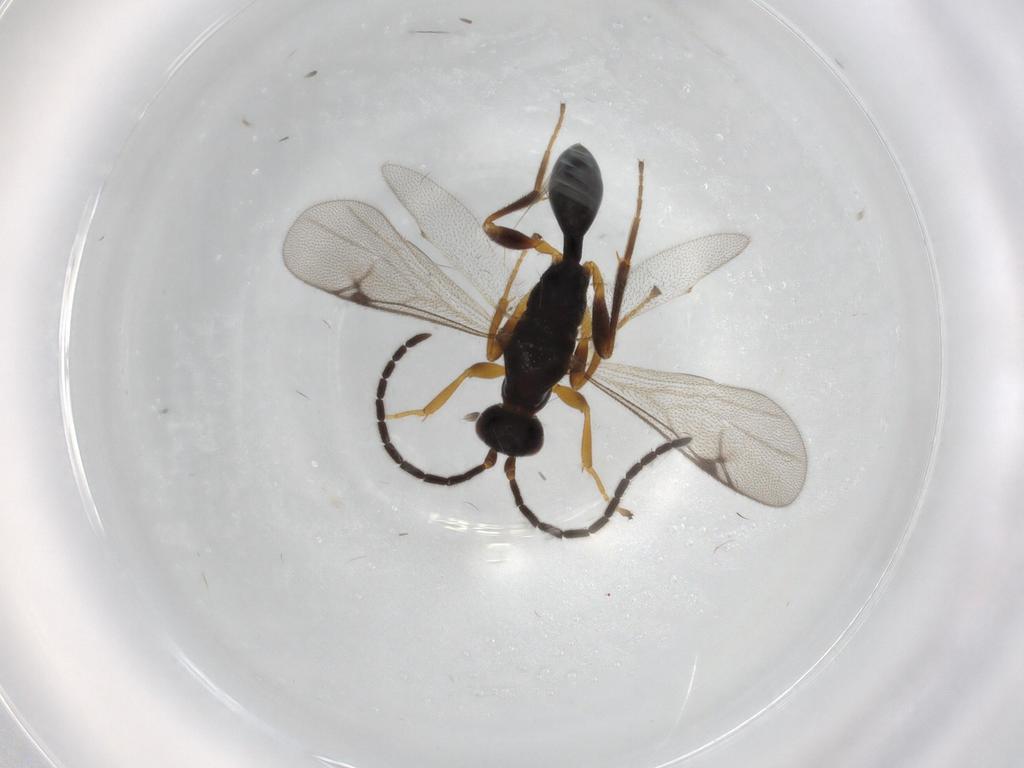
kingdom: Animalia
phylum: Arthropoda
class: Insecta
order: Hymenoptera
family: Proctotrupidae
